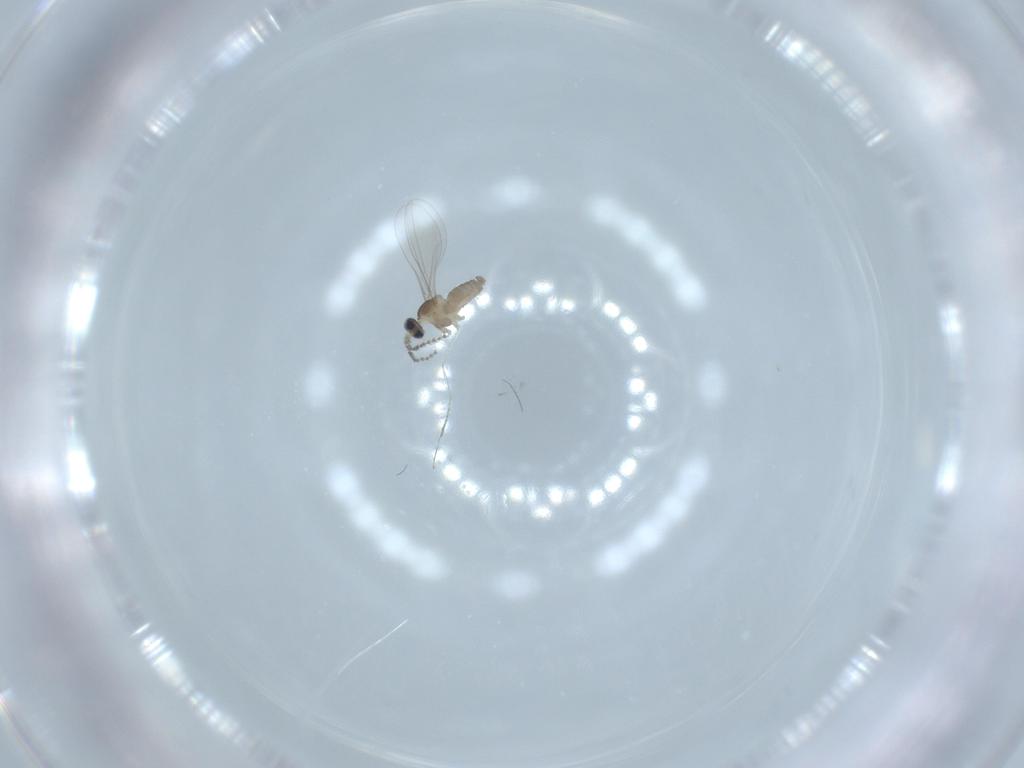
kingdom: Animalia
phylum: Arthropoda
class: Insecta
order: Diptera
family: Cecidomyiidae
